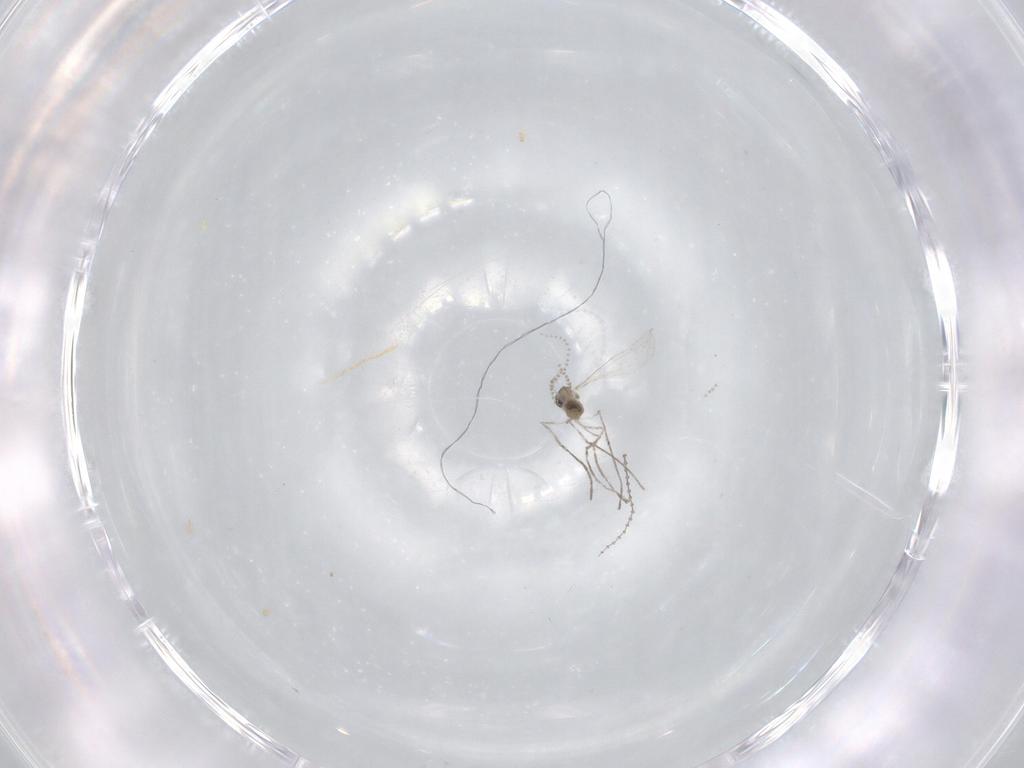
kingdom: Animalia
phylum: Arthropoda
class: Insecta
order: Diptera
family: Cecidomyiidae
